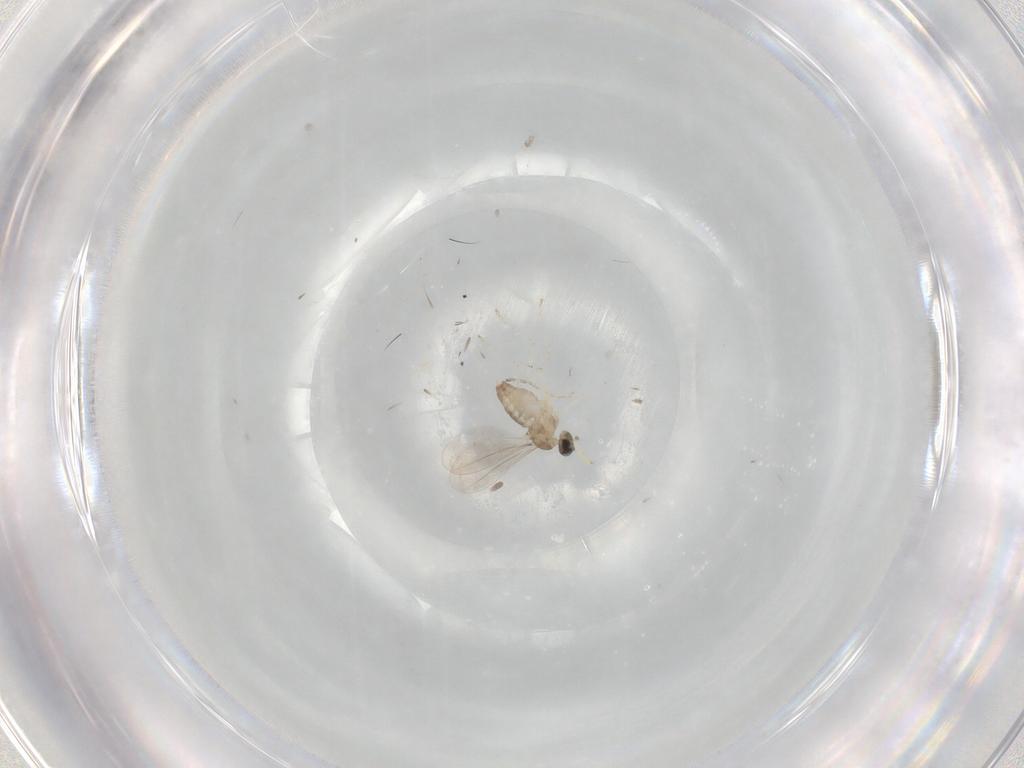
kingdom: Animalia
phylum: Arthropoda
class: Insecta
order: Diptera
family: Cecidomyiidae
